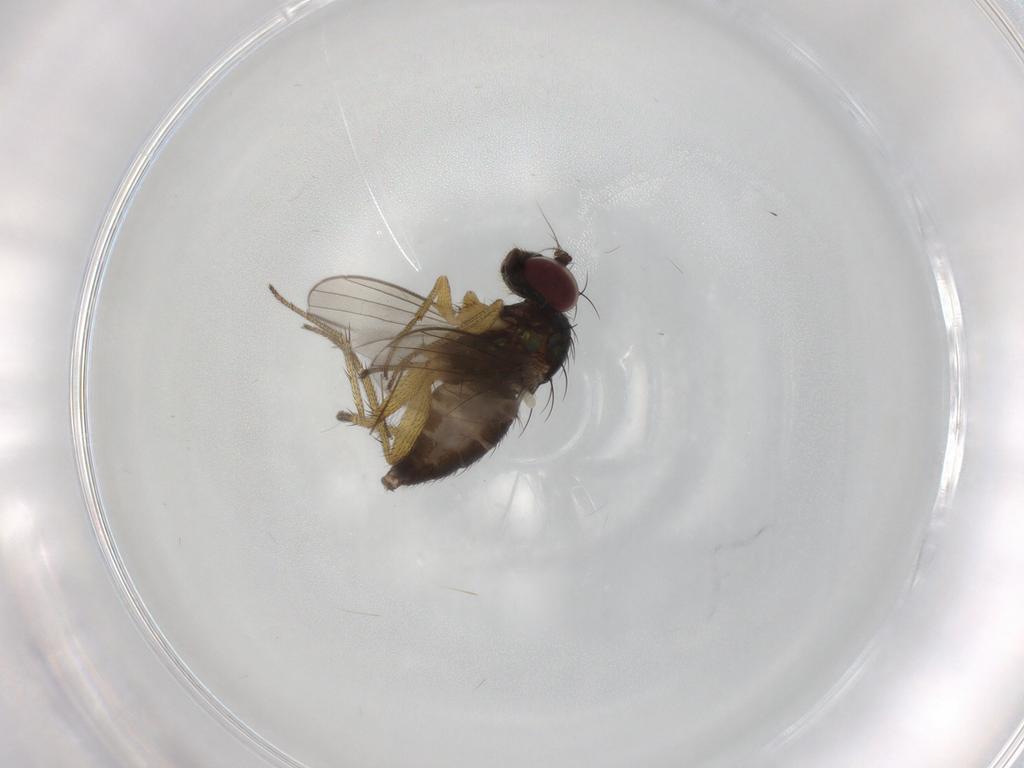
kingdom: Animalia
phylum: Arthropoda
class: Insecta
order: Diptera
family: Chironomidae
